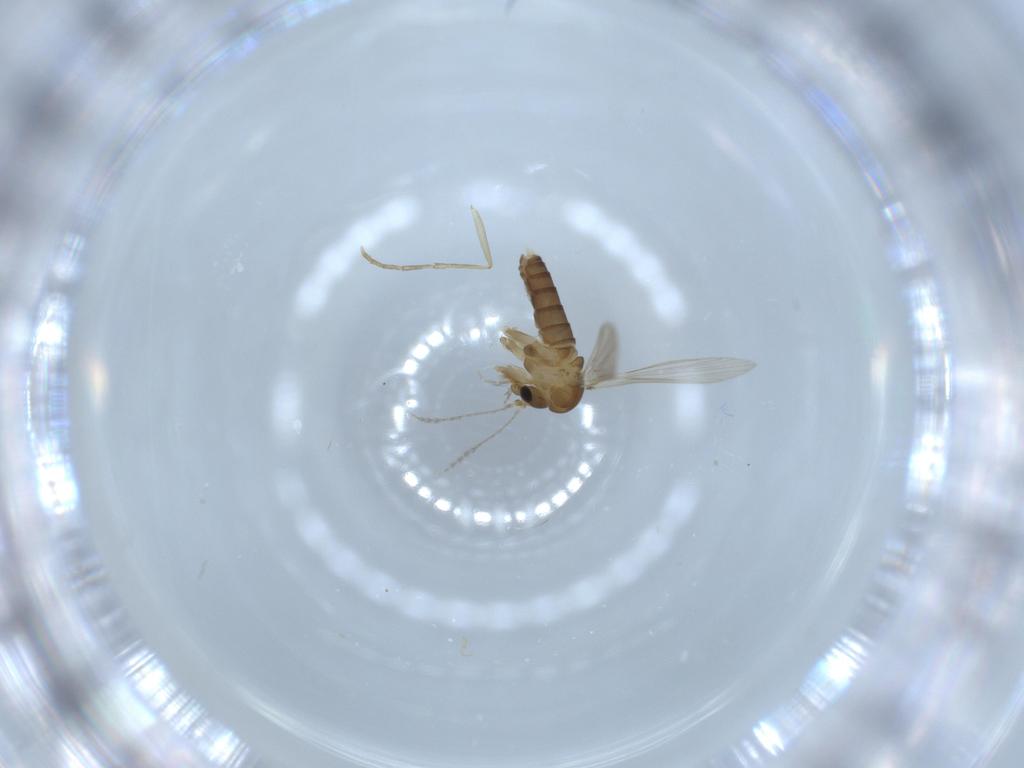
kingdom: Animalia
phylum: Arthropoda
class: Insecta
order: Diptera
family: Psychodidae
